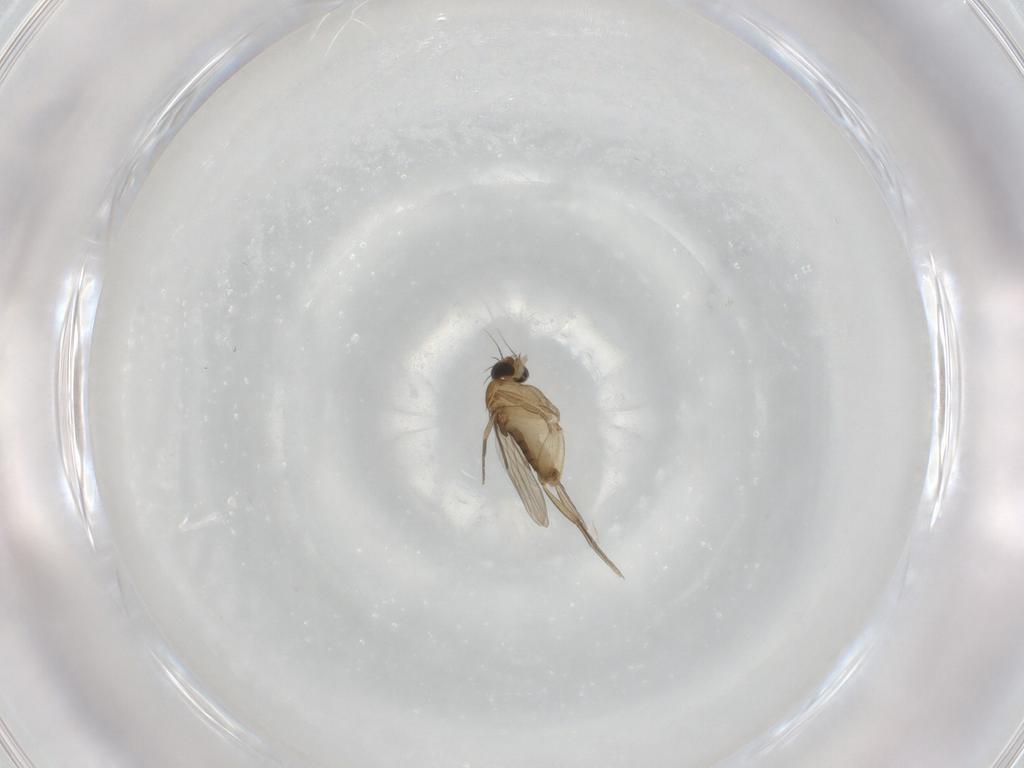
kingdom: Animalia
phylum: Arthropoda
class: Insecta
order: Diptera
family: Phoridae
